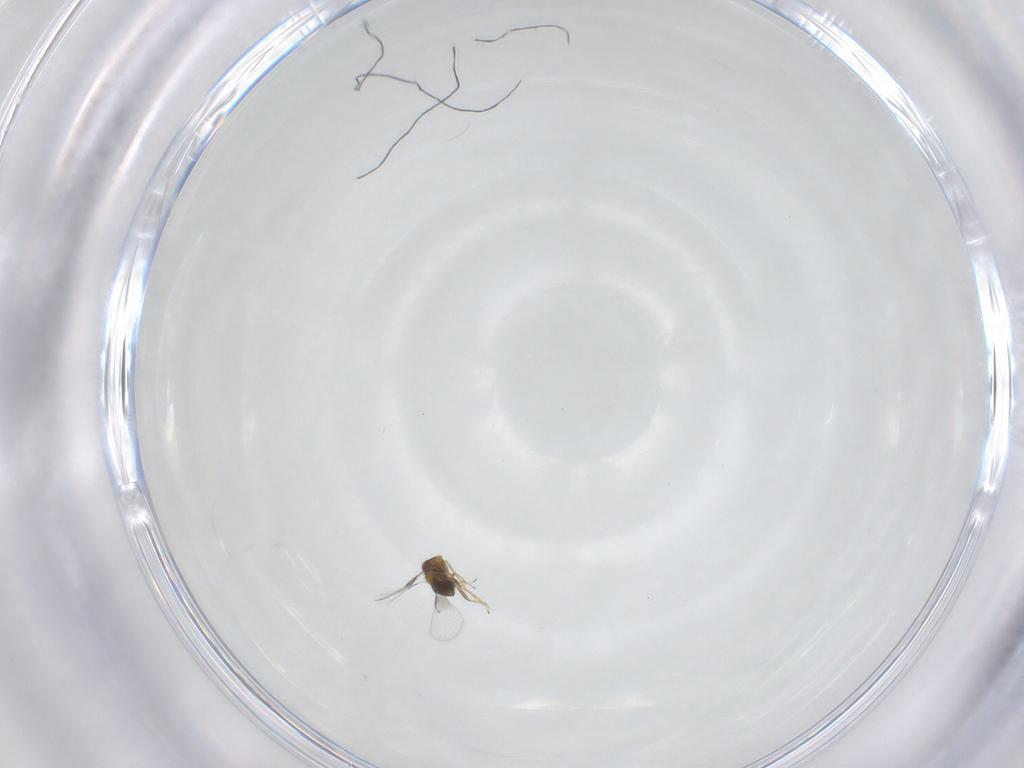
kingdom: Animalia
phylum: Arthropoda
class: Insecta
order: Hymenoptera
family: Trichogrammatidae
